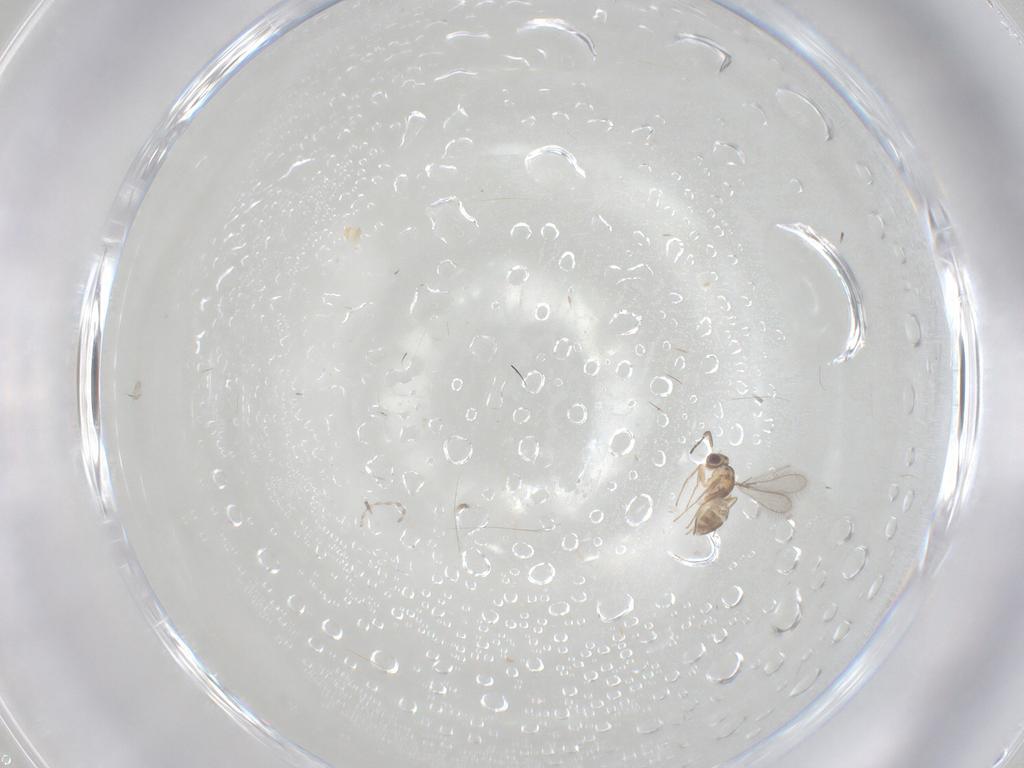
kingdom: Animalia
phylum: Arthropoda
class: Insecta
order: Hymenoptera
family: Mymaridae
